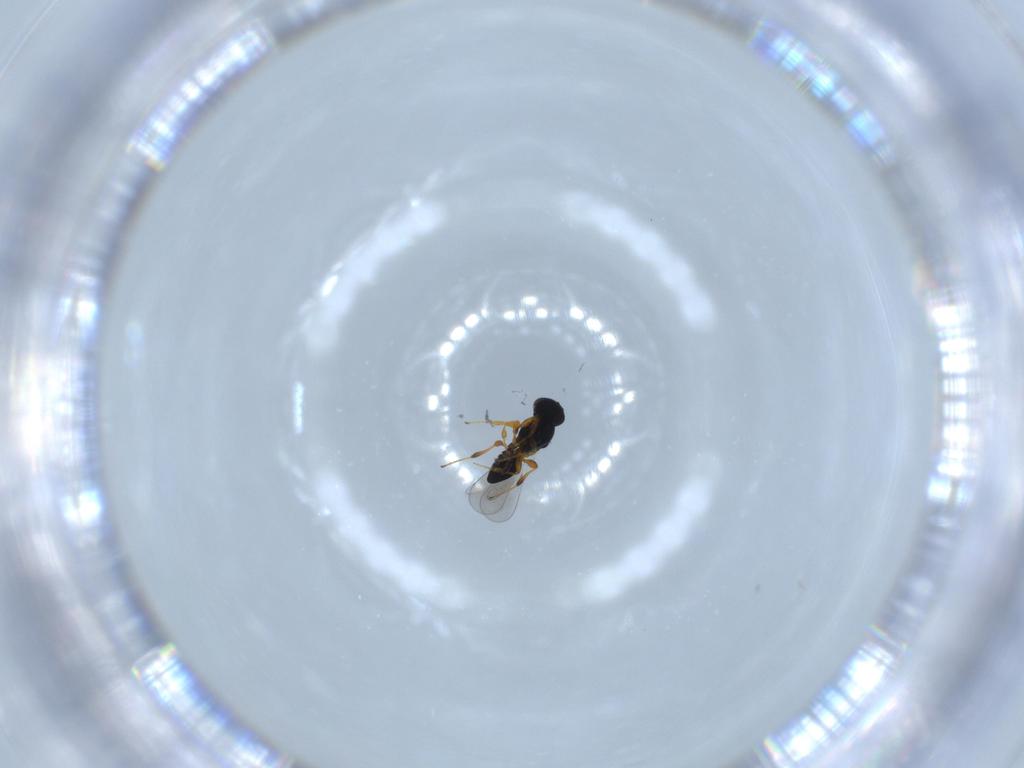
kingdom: Animalia
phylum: Arthropoda
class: Insecta
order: Hymenoptera
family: Platygastridae
